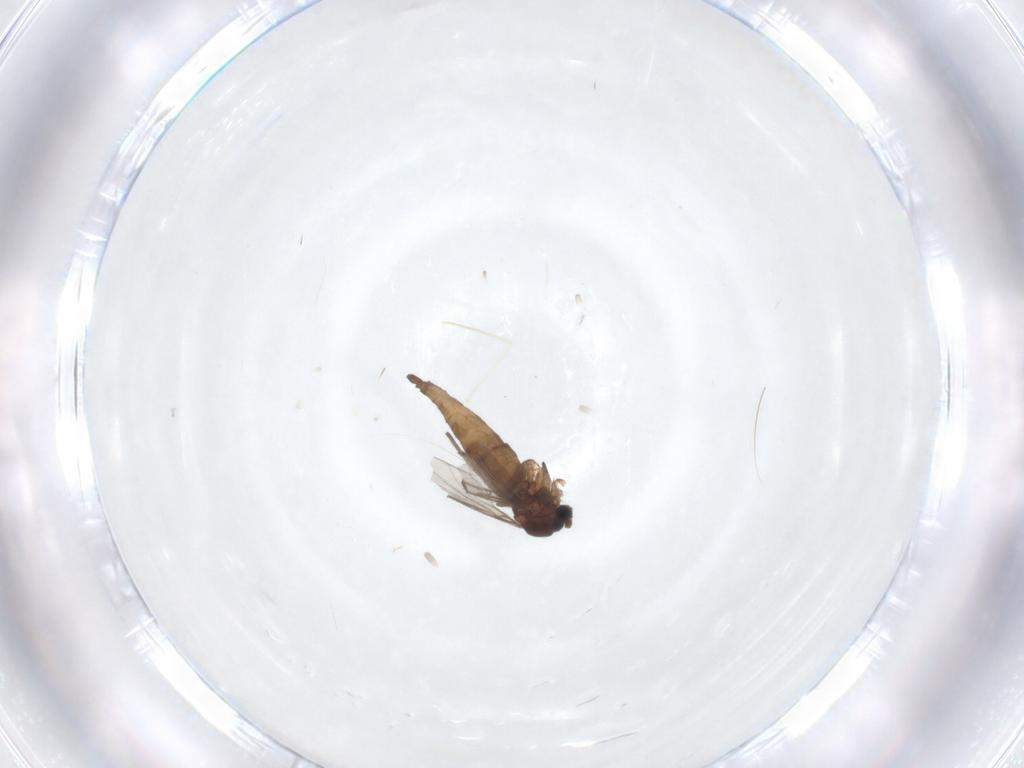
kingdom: Animalia
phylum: Arthropoda
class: Insecta
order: Diptera
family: Cecidomyiidae
